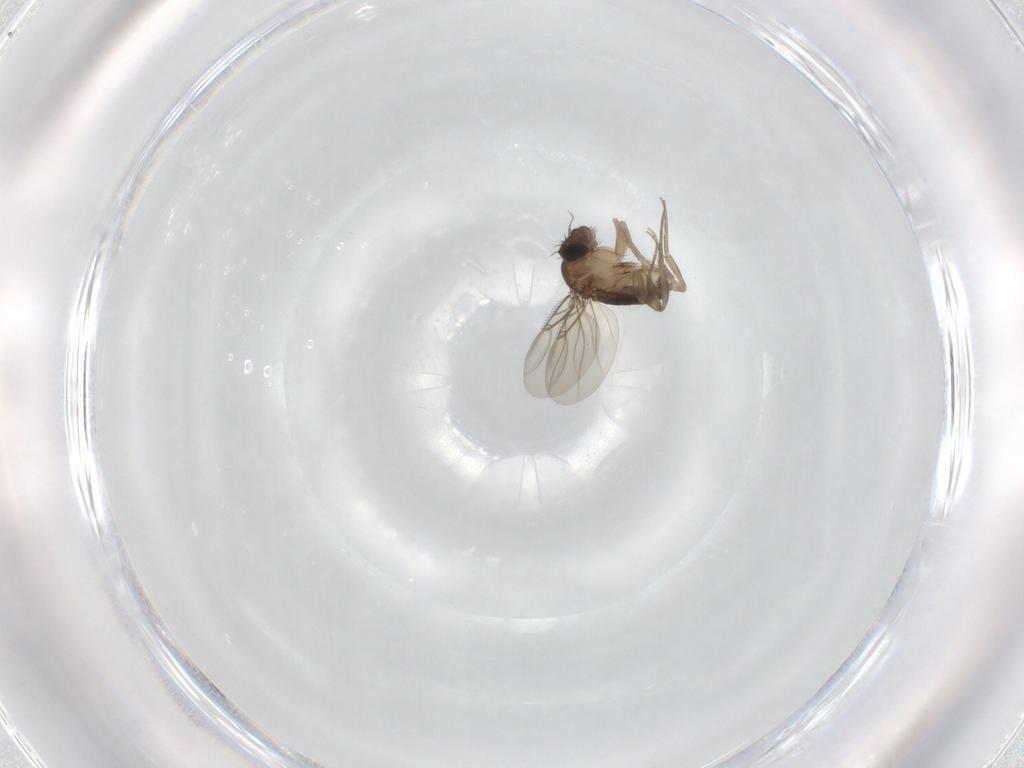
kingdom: Animalia
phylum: Arthropoda
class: Insecta
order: Diptera
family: Phoridae
